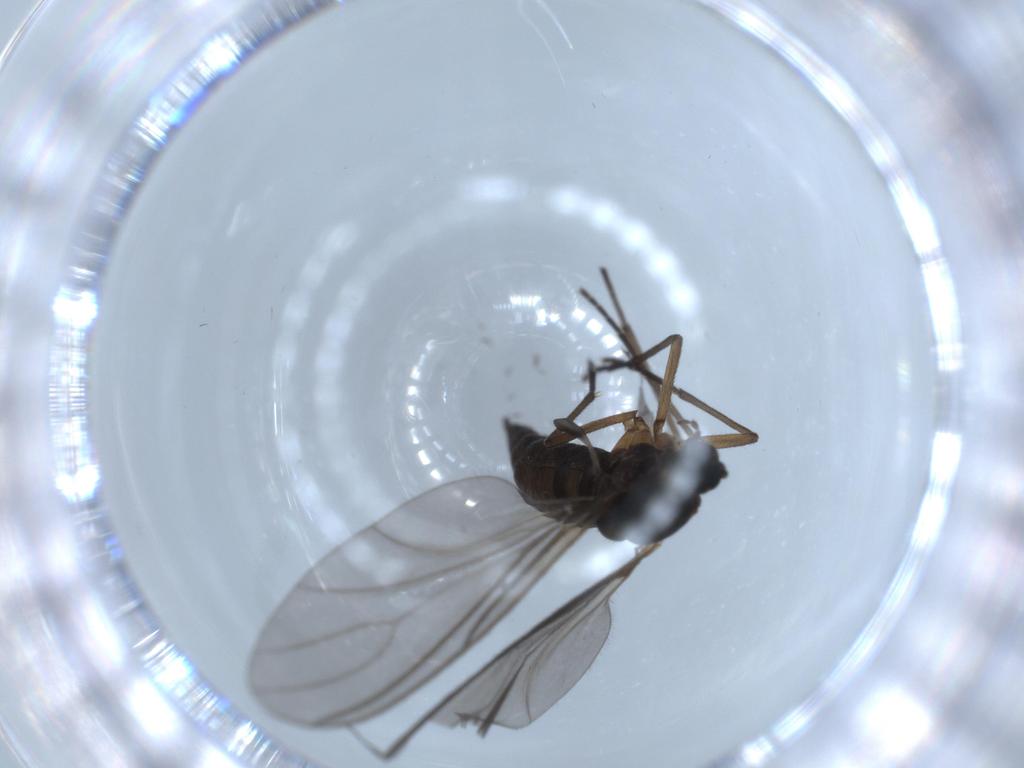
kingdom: Animalia
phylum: Arthropoda
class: Insecta
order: Diptera
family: Sciaridae
